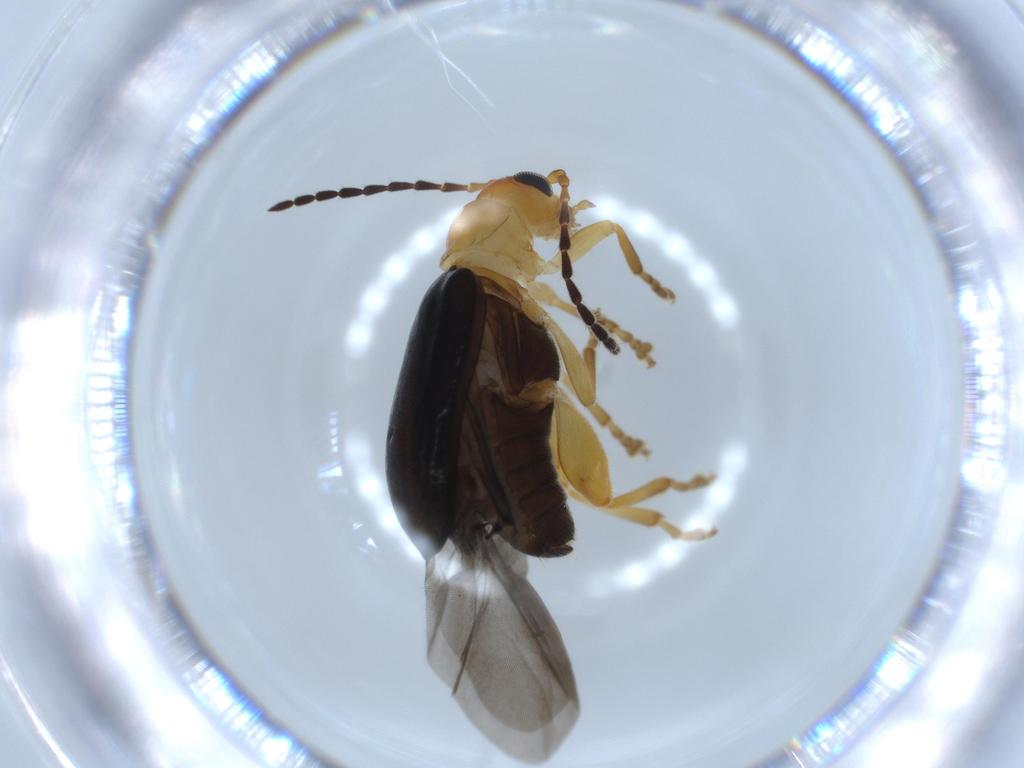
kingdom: Animalia
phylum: Arthropoda
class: Insecta
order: Coleoptera
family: Chrysomelidae
